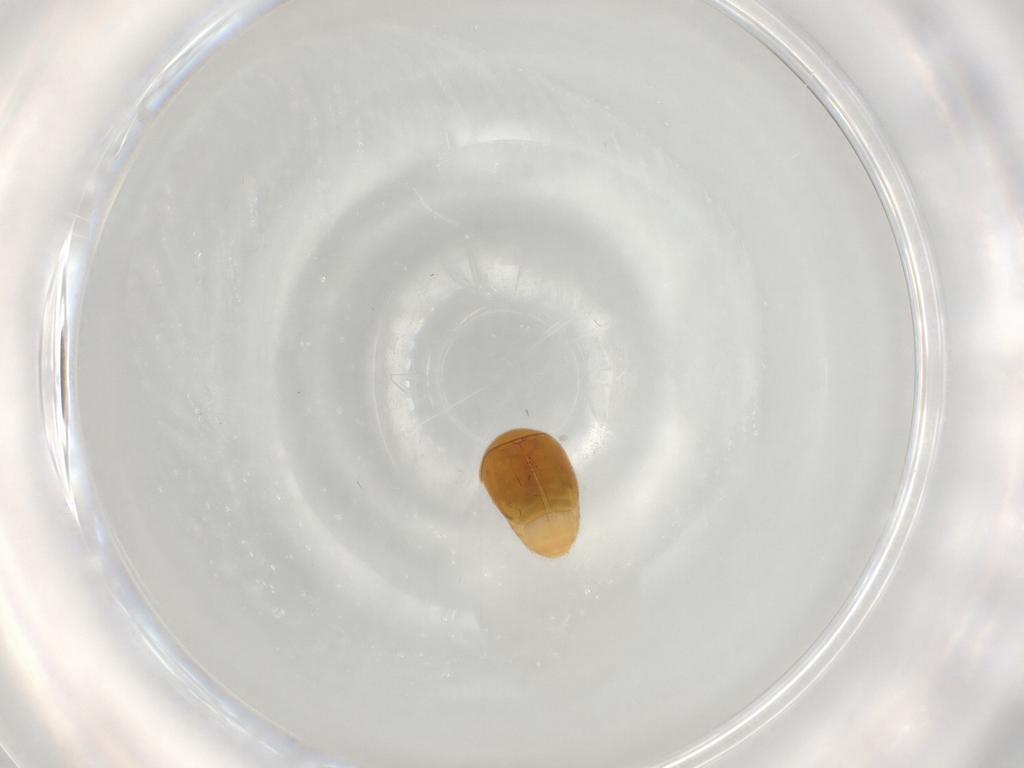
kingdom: Animalia
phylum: Arthropoda
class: Insecta
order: Coleoptera
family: Corylophidae
